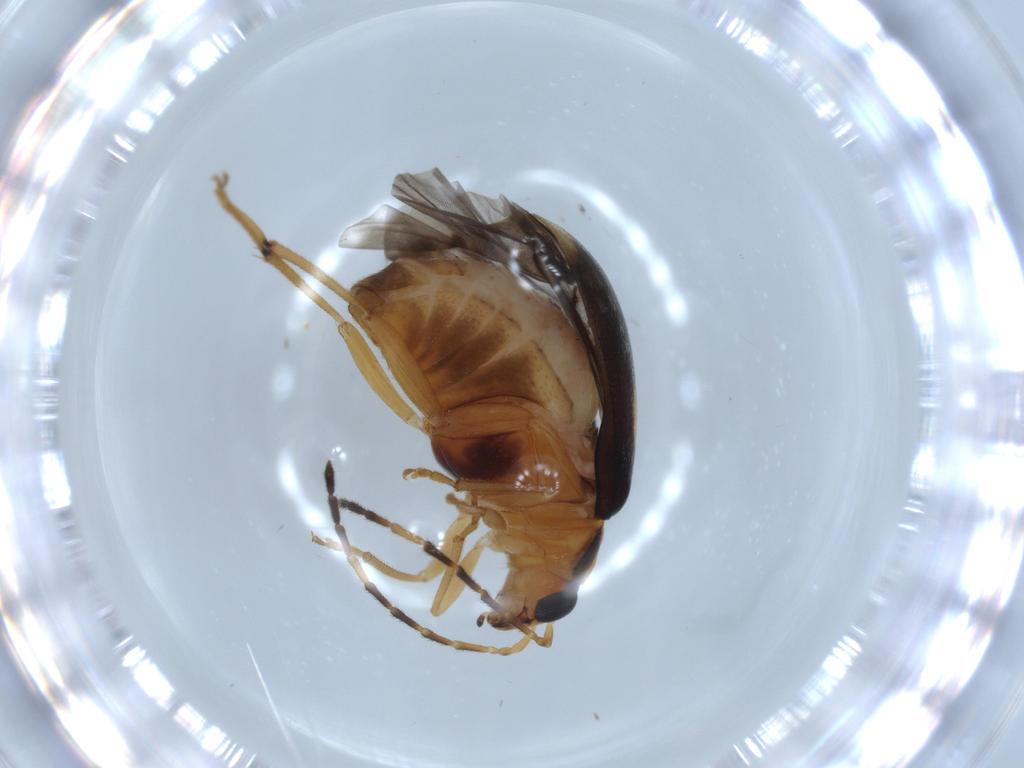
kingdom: Animalia
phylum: Arthropoda
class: Insecta
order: Coleoptera
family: Chrysomelidae
